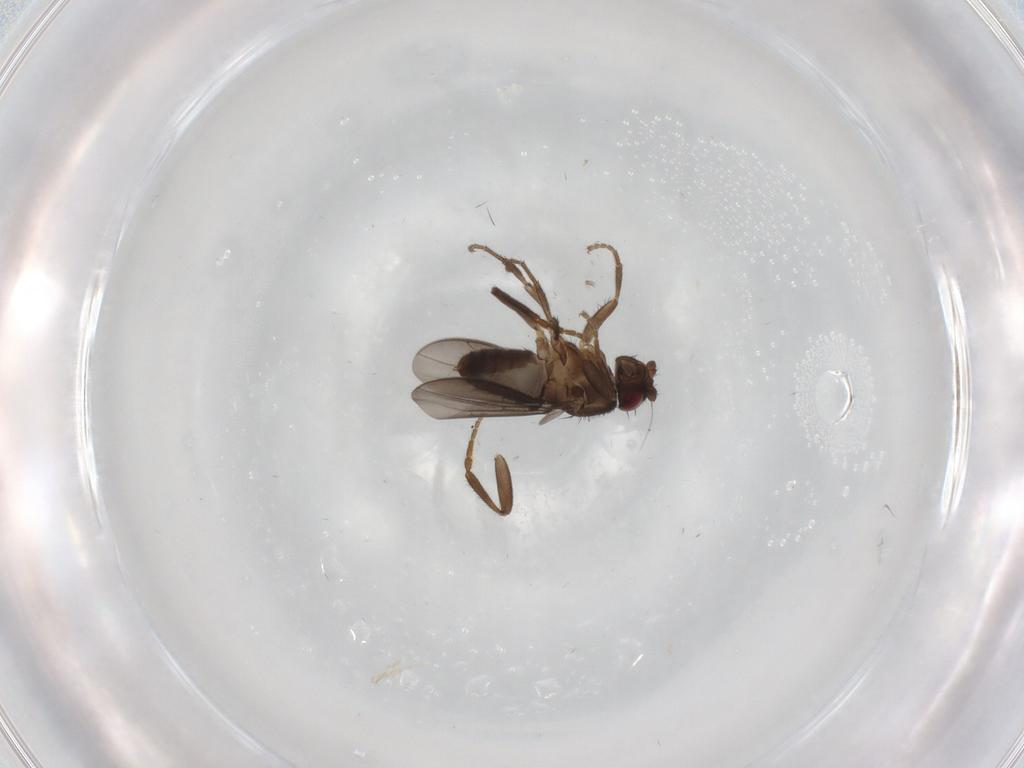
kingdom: Animalia
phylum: Arthropoda
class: Insecta
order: Diptera
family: Sphaeroceridae
